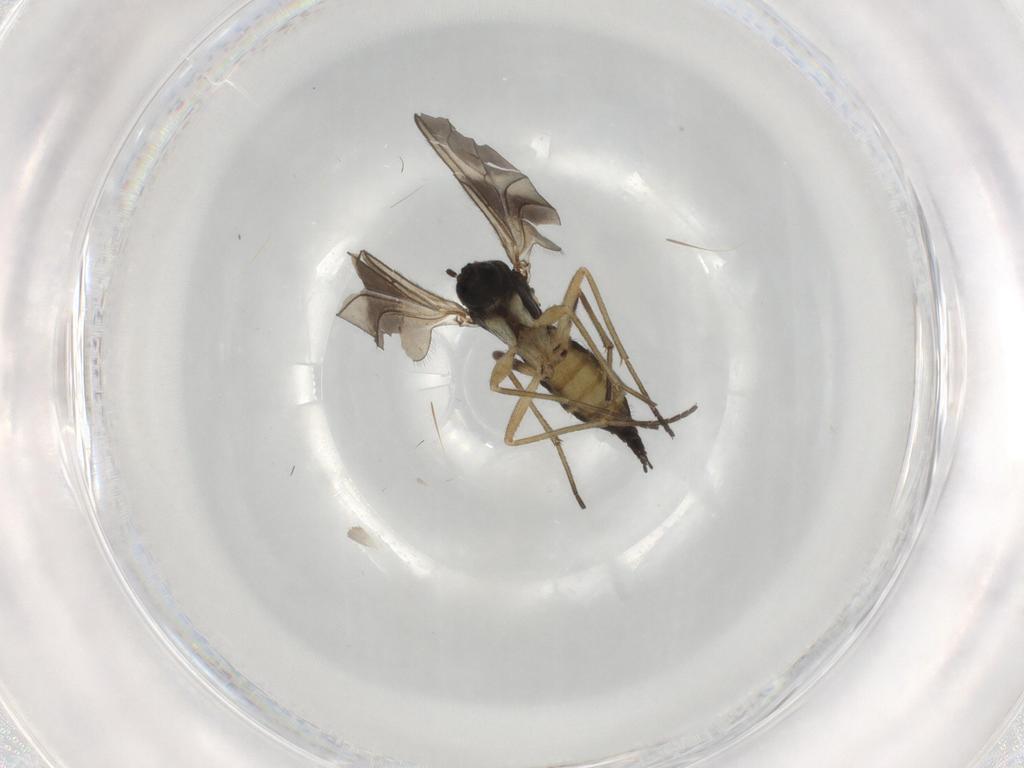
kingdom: Animalia
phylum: Arthropoda
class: Insecta
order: Diptera
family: Sciaridae
